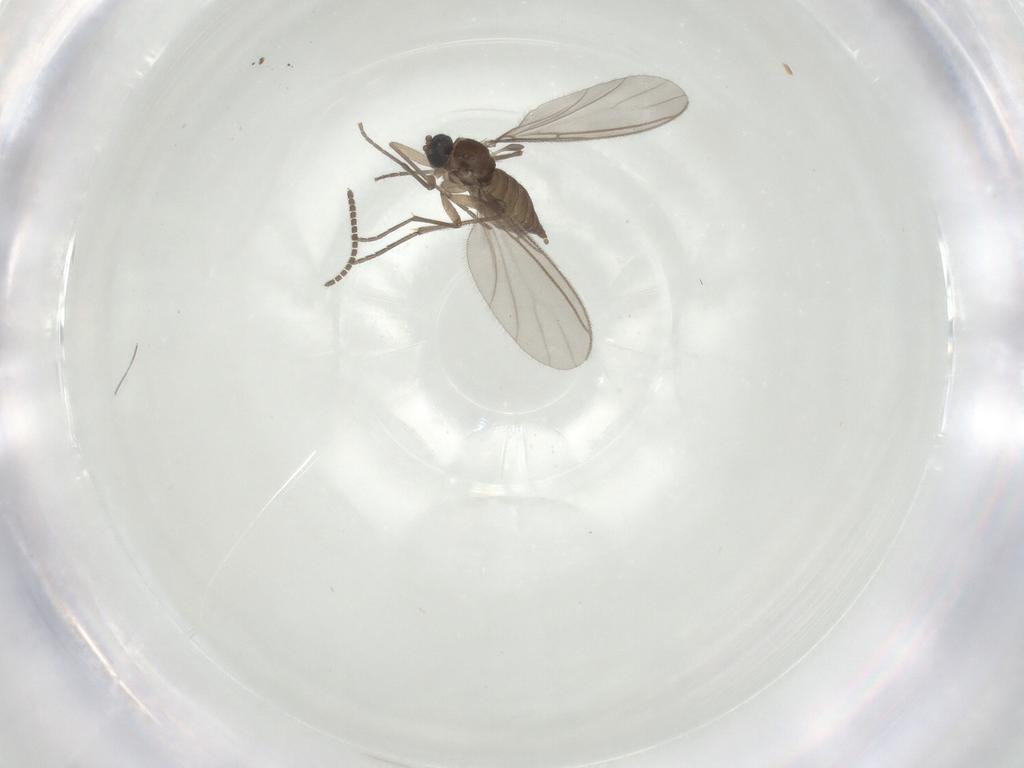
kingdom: Animalia
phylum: Arthropoda
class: Insecta
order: Diptera
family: Sciaridae
